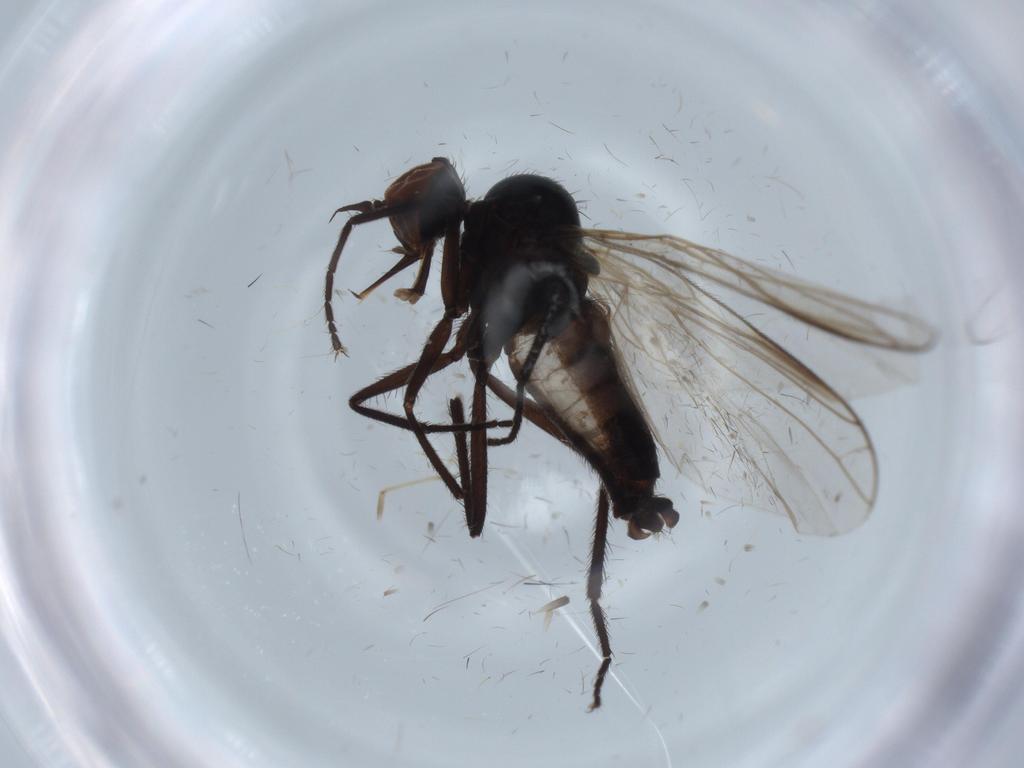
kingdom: Animalia
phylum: Arthropoda
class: Insecta
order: Diptera
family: Empididae
